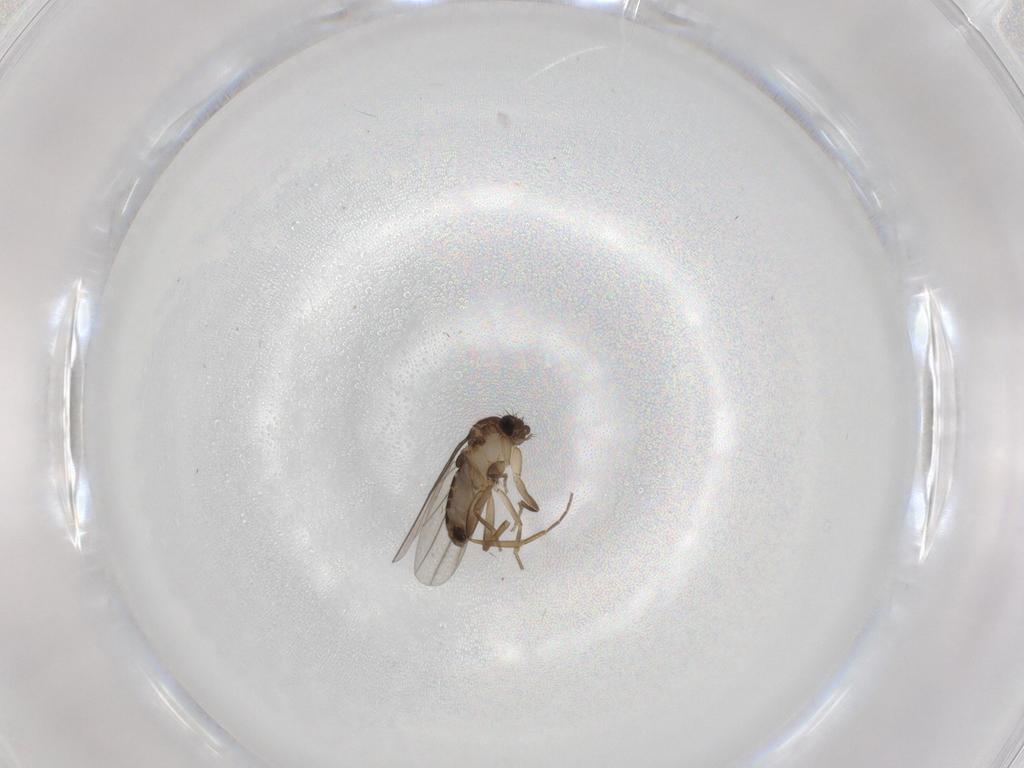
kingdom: Animalia
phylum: Arthropoda
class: Insecta
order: Diptera
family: Phoridae
